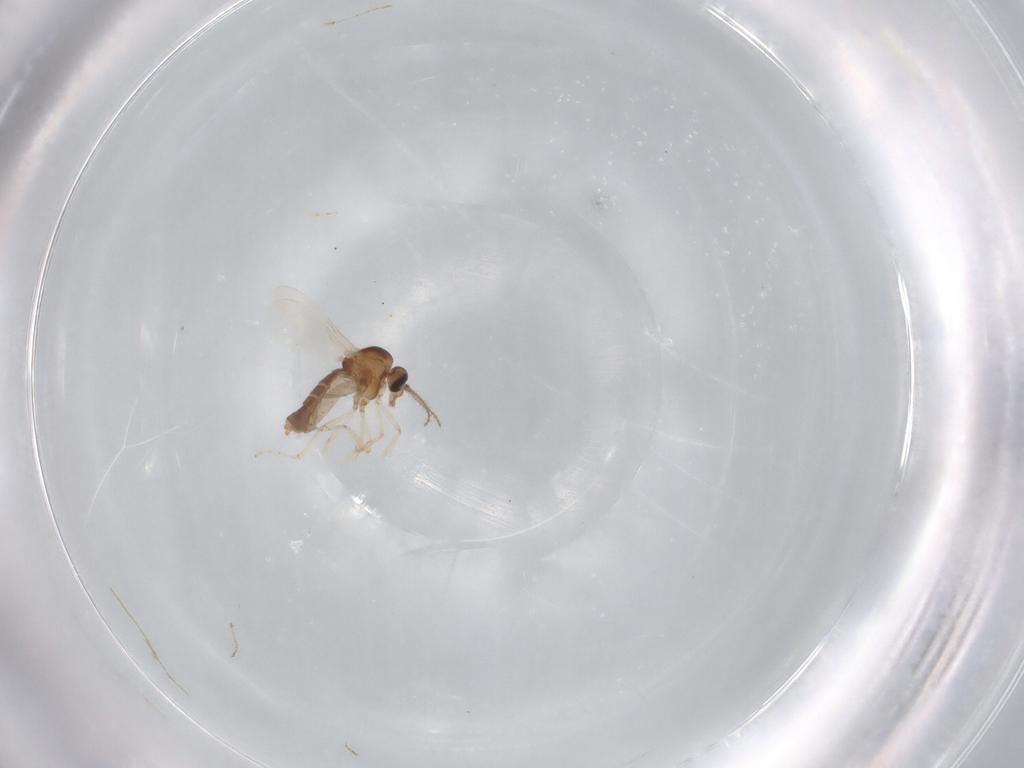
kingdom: Animalia
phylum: Arthropoda
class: Insecta
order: Diptera
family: Ceratopogonidae
